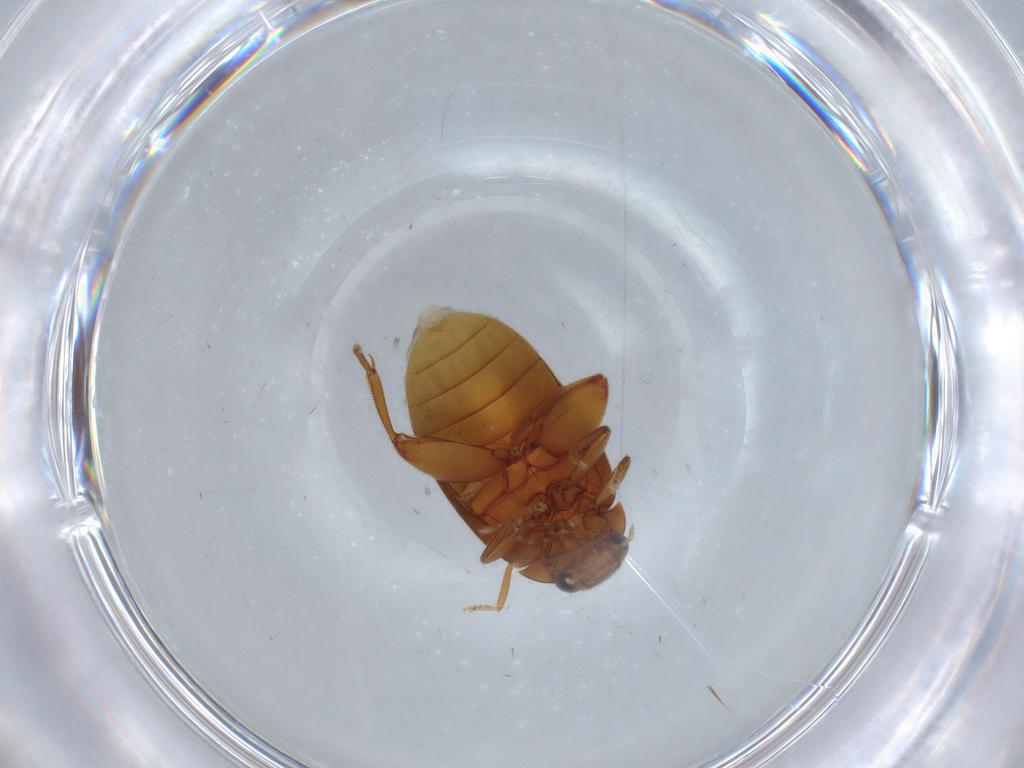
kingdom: Animalia
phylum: Arthropoda
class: Insecta
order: Coleoptera
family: Scirtidae
